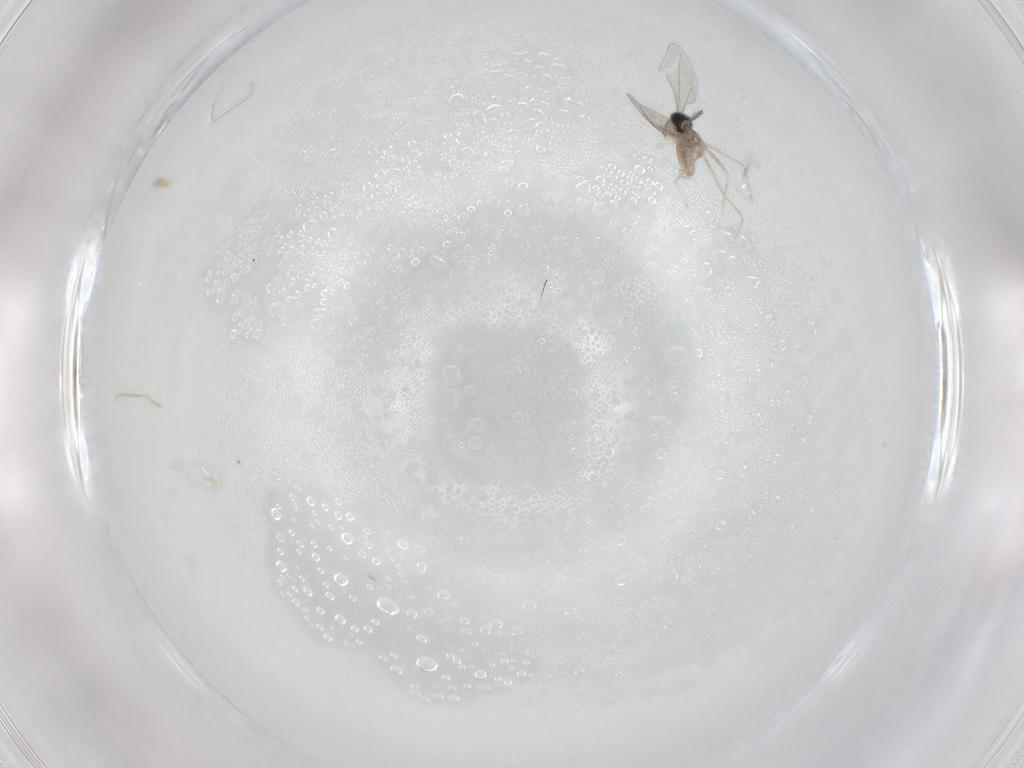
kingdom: Animalia
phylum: Arthropoda
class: Insecta
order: Diptera
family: Cecidomyiidae
